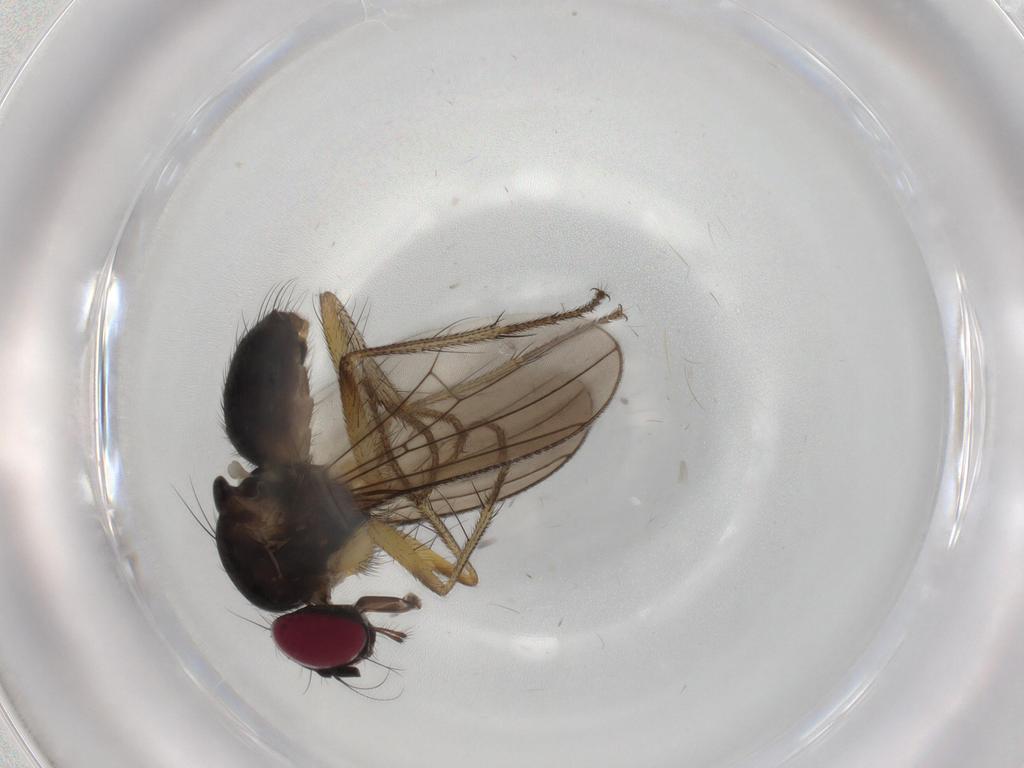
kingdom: Animalia
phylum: Arthropoda
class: Insecta
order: Diptera
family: Anthomyiidae
